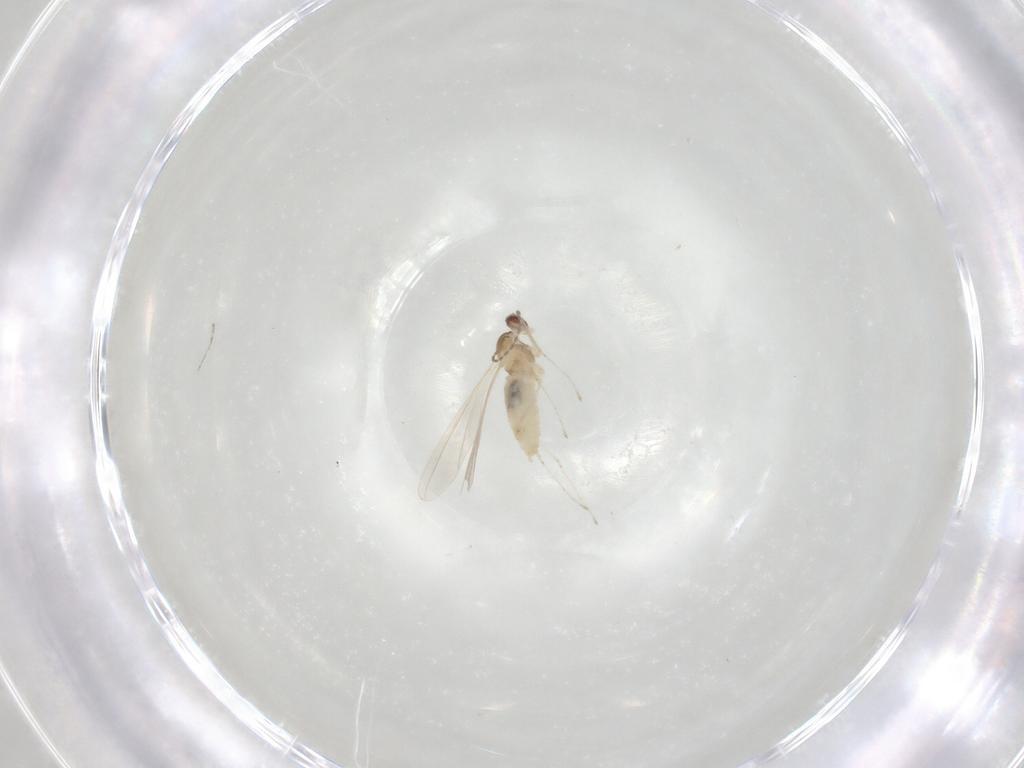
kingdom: Animalia
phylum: Arthropoda
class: Insecta
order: Diptera
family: Cecidomyiidae
